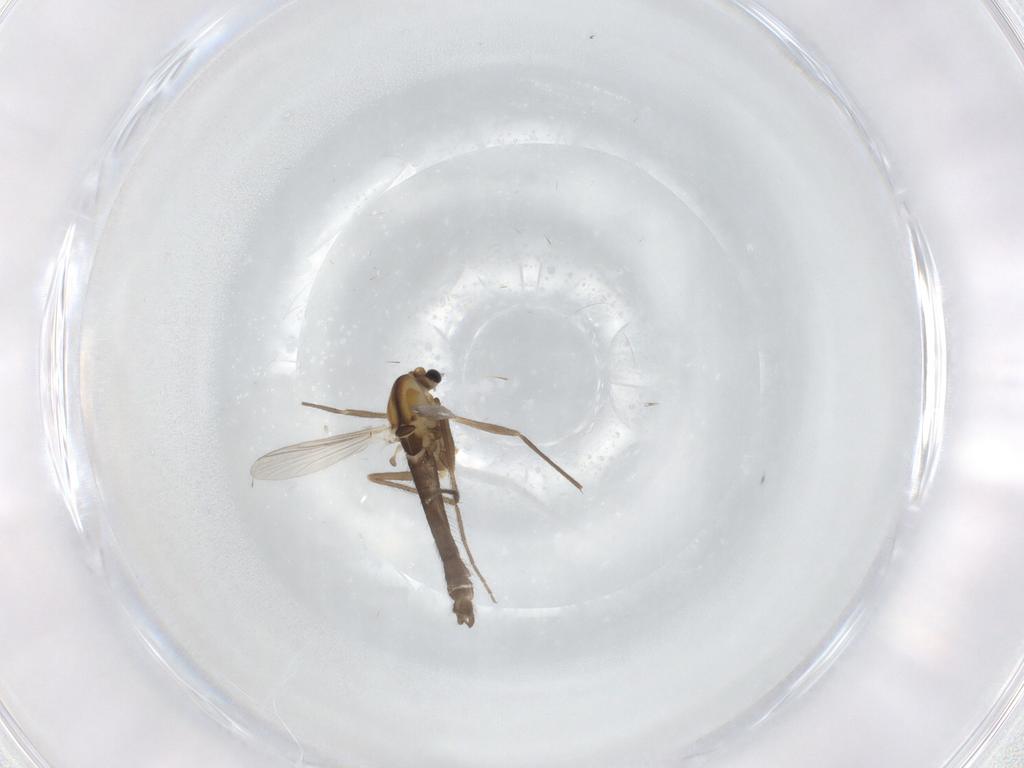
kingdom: Animalia
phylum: Arthropoda
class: Insecta
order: Diptera
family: Chironomidae
